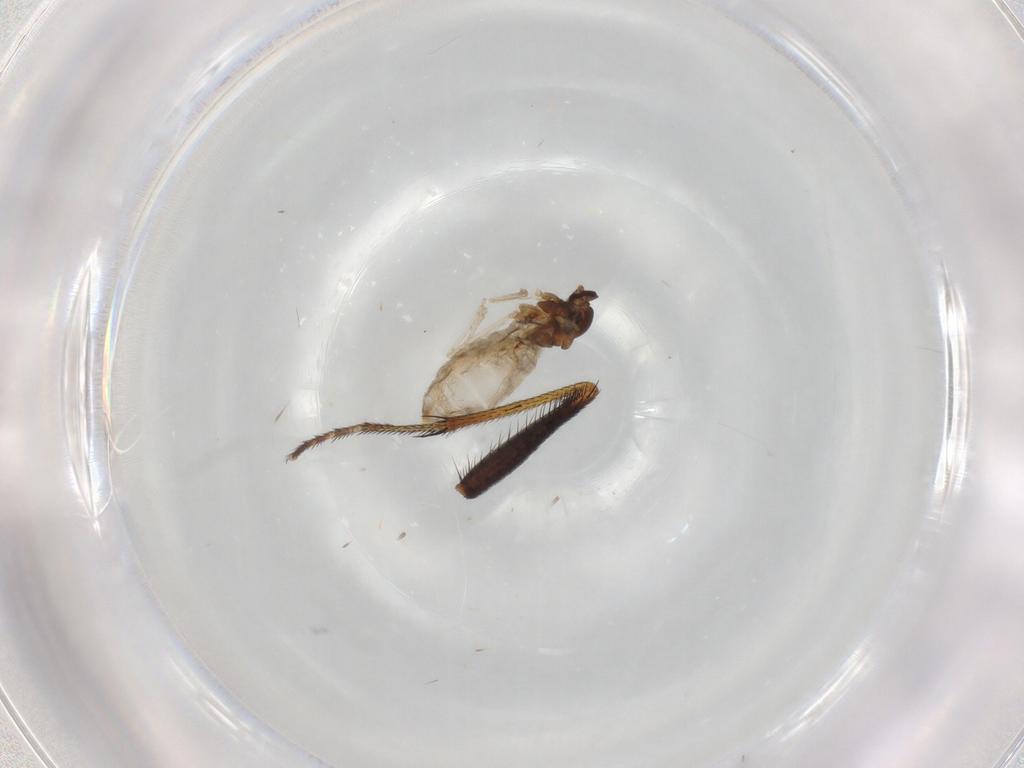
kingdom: Animalia
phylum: Arthropoda
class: Insecta
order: Diptera
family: Cecidomyiidae
